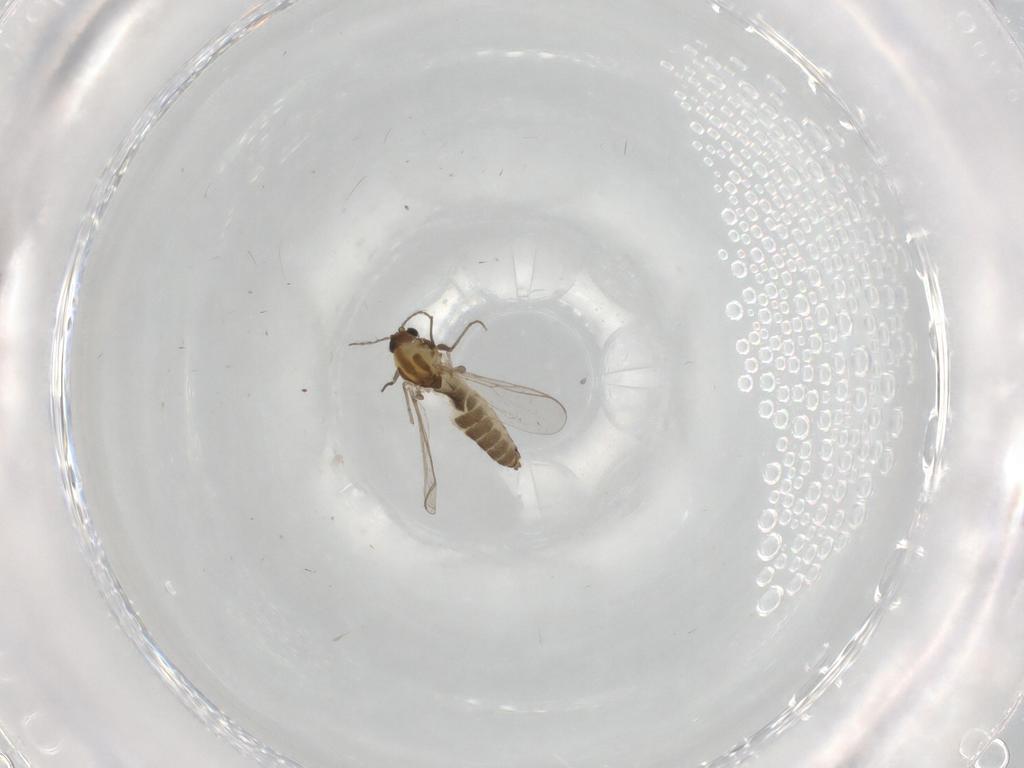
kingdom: Animalia
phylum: Arthropoda
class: Insecta
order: Diptera
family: Chironomidae
